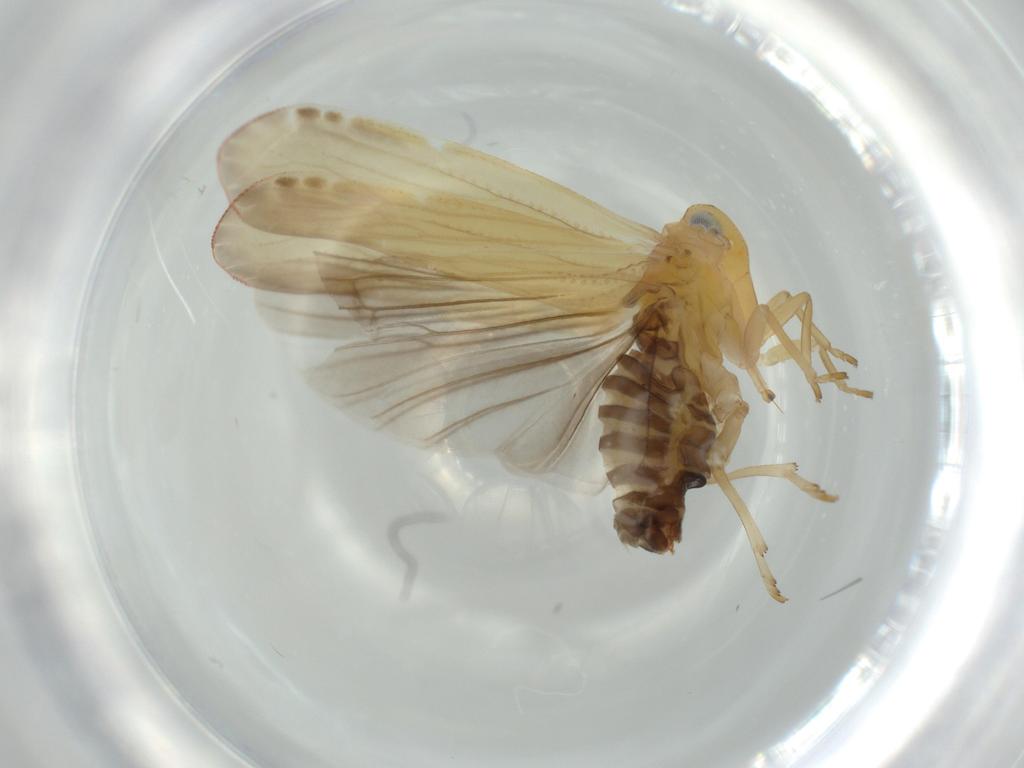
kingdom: Animalia
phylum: Arthropoda
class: Insecta
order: Hemiptera
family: Derbidae
